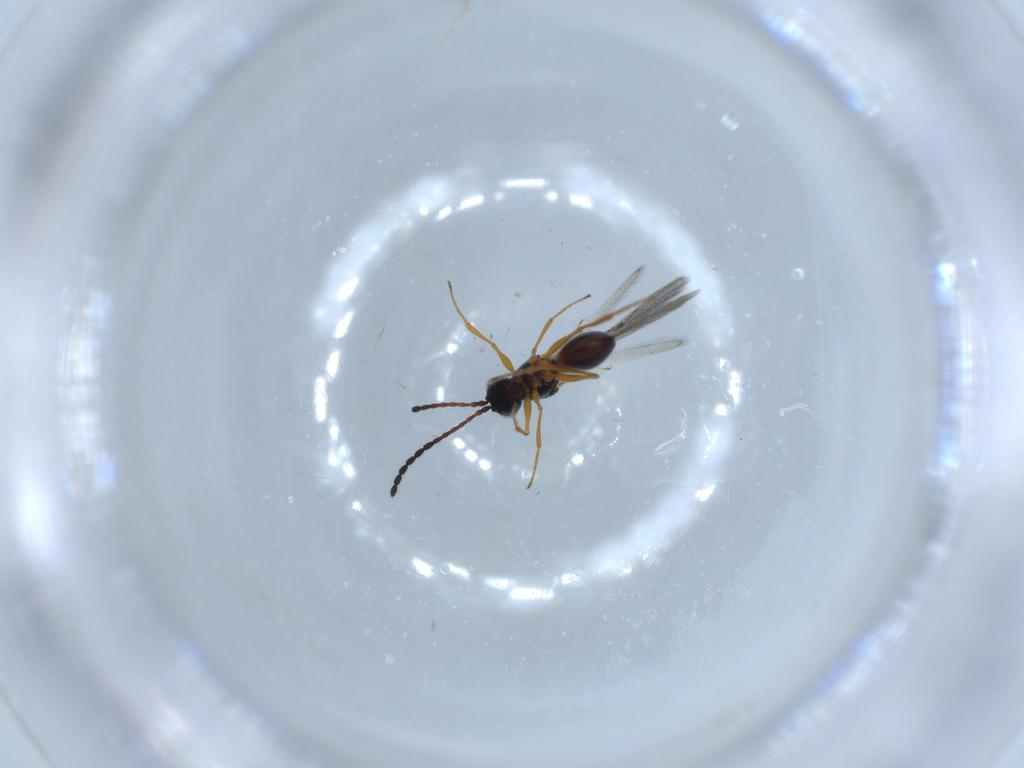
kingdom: Animalia
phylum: Arthropoda
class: Insecta
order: Hymenoptera
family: Figitidae
